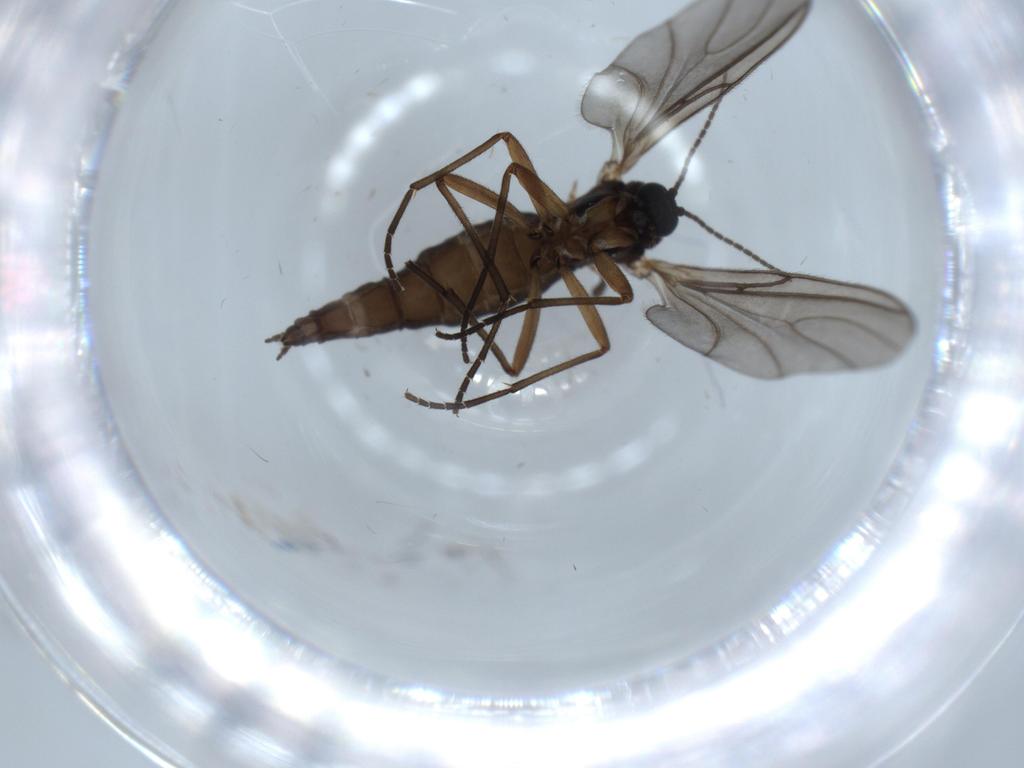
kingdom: Animalia
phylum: Arthropoda
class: Insecta
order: Diptera
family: Sciaridae
